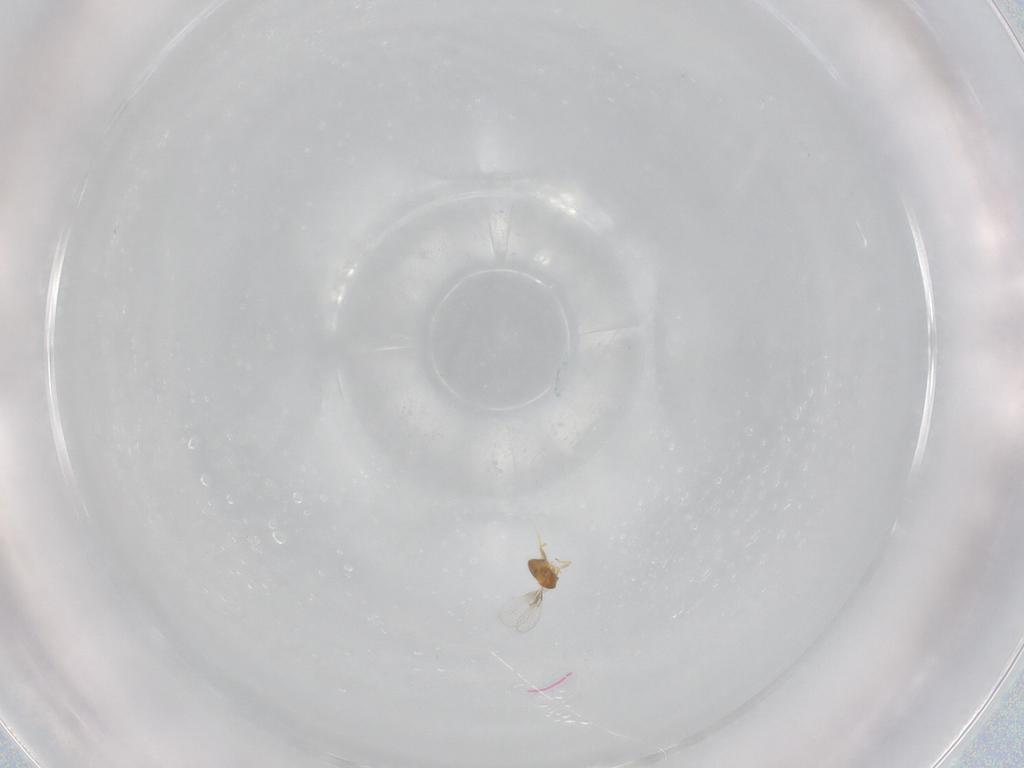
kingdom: Animalia
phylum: Arthropoda
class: Insecta
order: Hymenoptera
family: Trichogrammatidae
